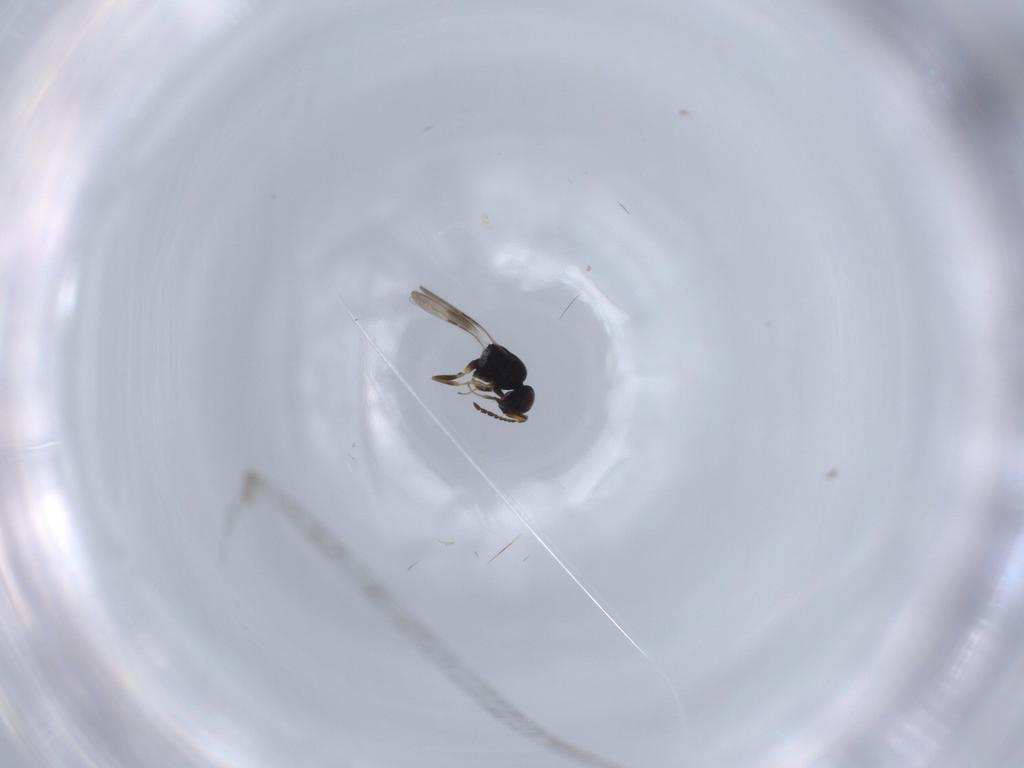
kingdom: Animalia
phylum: Arthropoda
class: Insecta
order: Hymenoptera
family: Ceraphronidae
